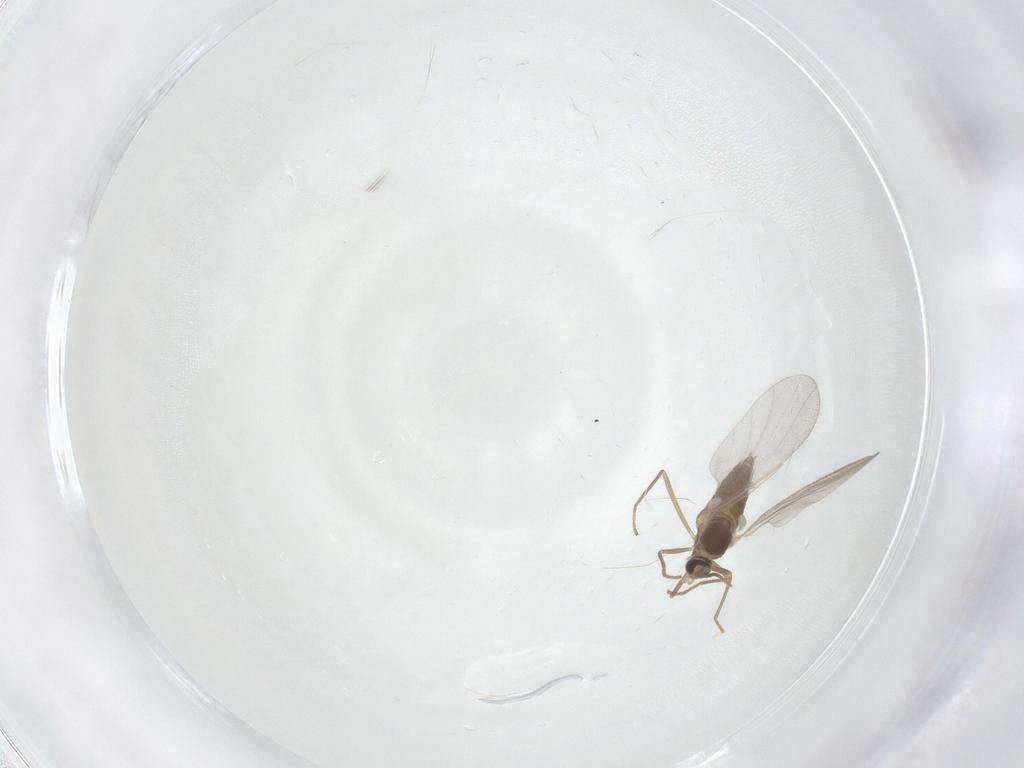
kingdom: Animalia
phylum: Arthropoda
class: Insecta
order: Diptera
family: Cecidomyiidae
